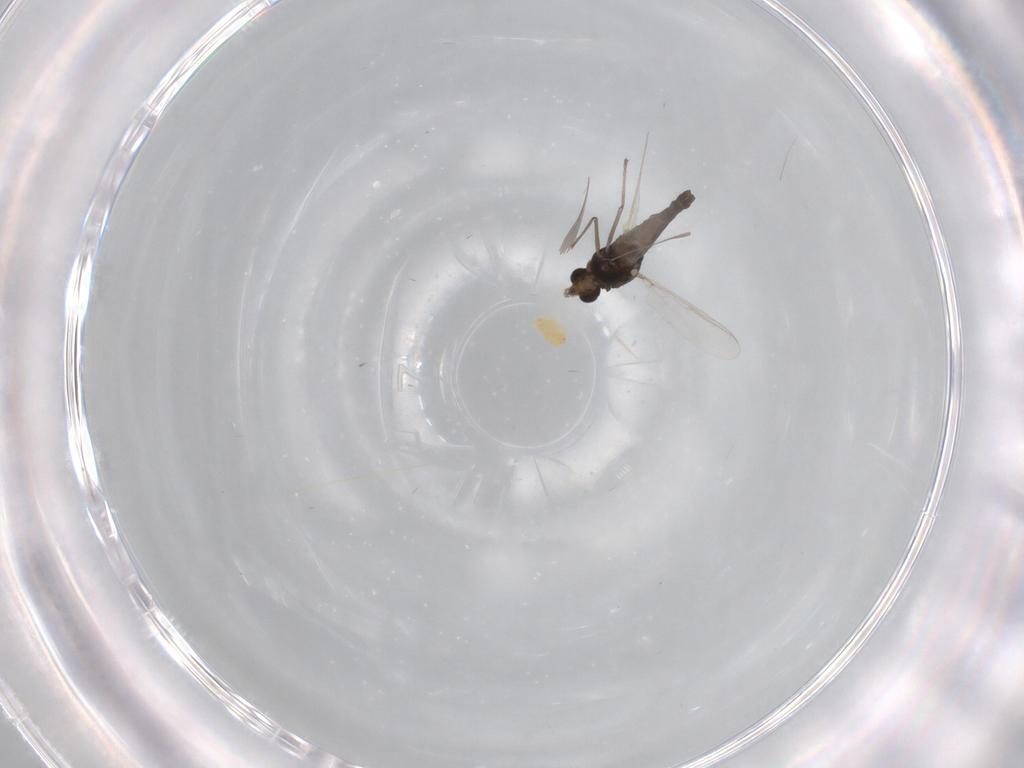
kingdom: Animalia
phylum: Arthropoda
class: Insecta
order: Diptera
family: Chironomidae
